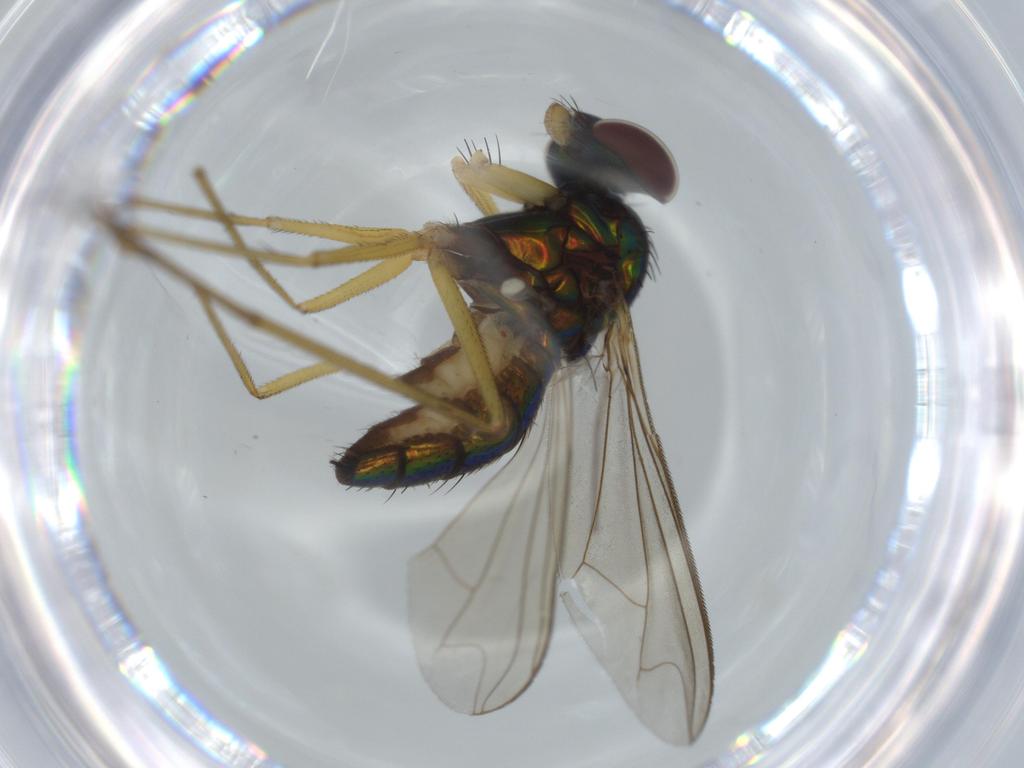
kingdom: Animalia
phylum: Arthropoda
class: Insecta
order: Diptera
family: Dolichopodidae
